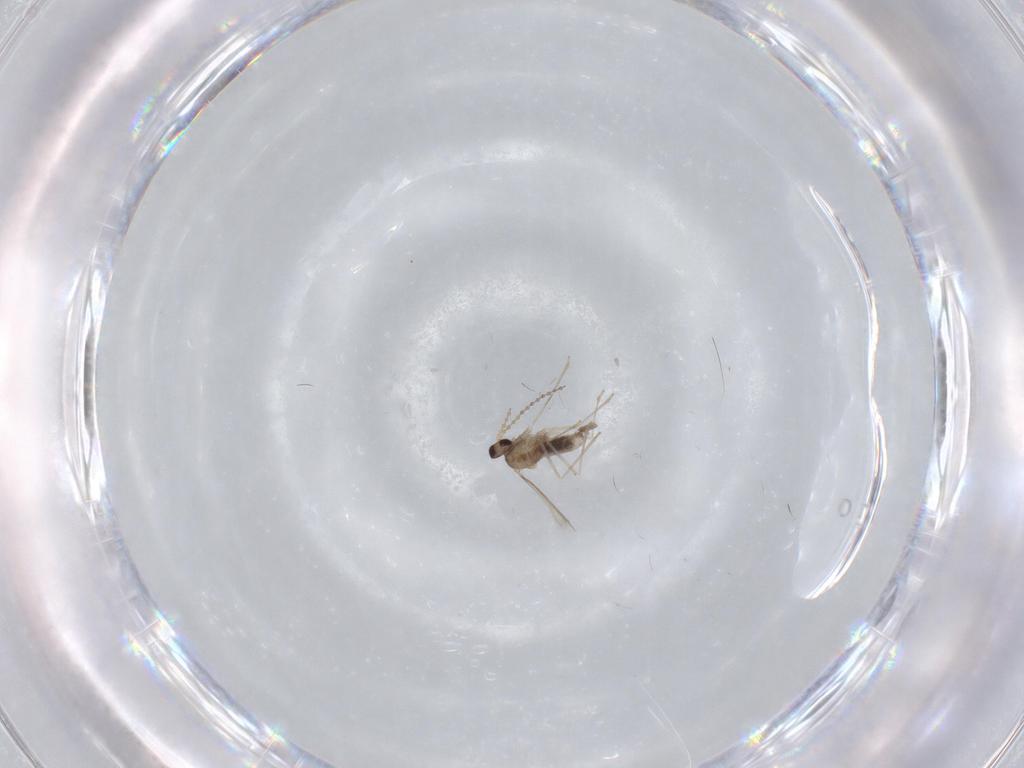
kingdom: Animalia
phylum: Arthropoda
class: Insecta
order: Diptera
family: Cecidomyiidae
